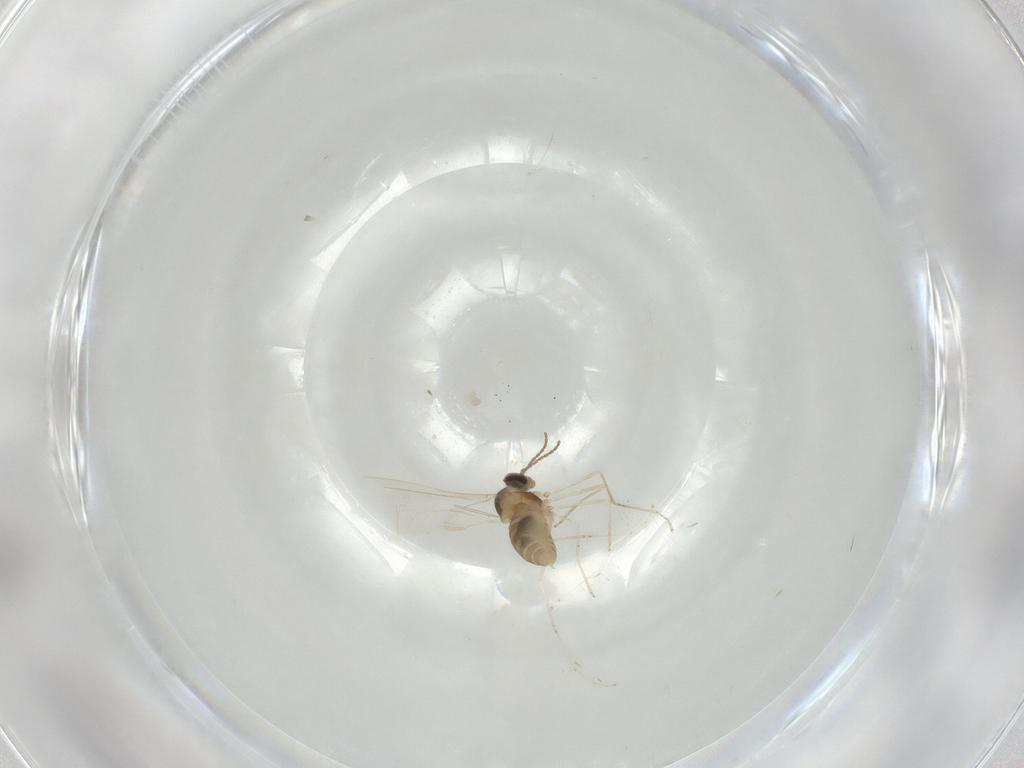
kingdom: Animalia
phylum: Arthropoda
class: Insecta
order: Diptera
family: Cecidomyiidae
